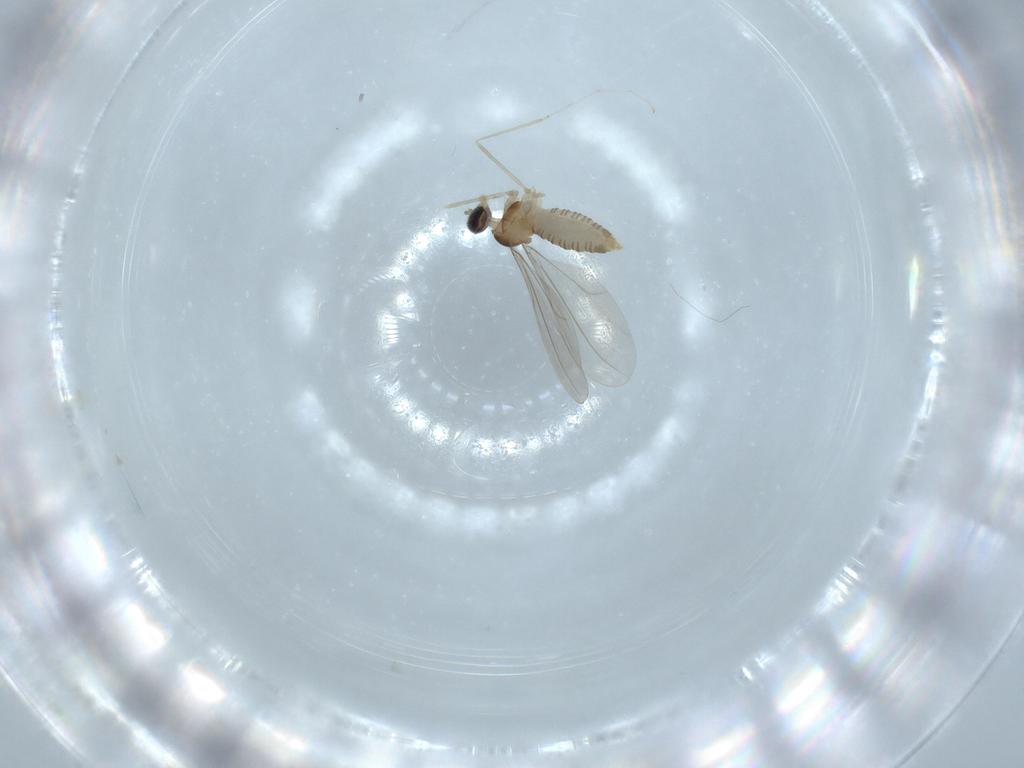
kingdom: Animalia
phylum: Arthropoda
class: Insecta
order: Diptera
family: Cecidomyiidae
